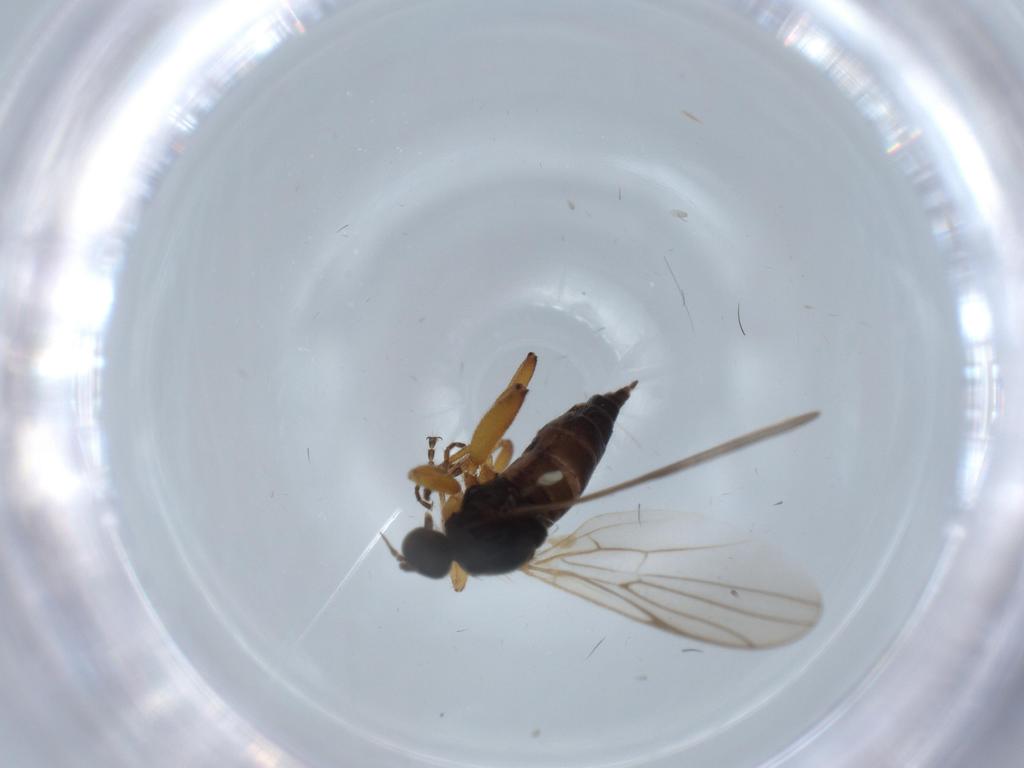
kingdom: Animalia
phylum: Arthropoda
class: Insecta
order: Diptera
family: Hybotidae
